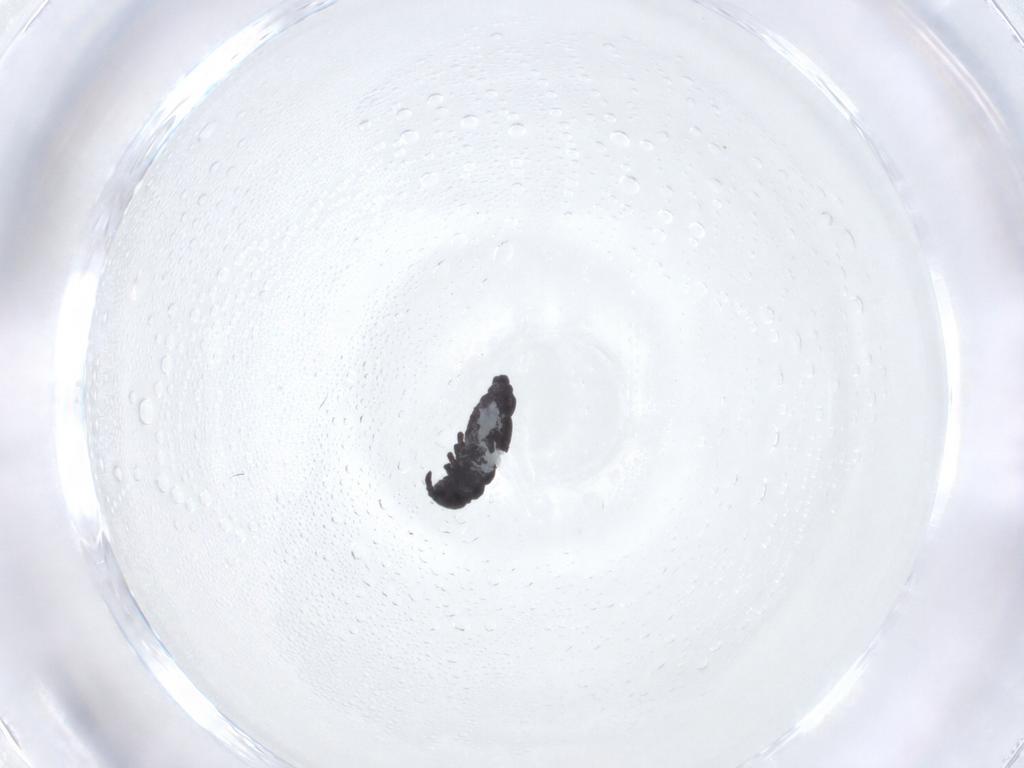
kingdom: Animalia
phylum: Arthropoda
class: Collembola
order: Poduromorpha
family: Hypogastruridae
